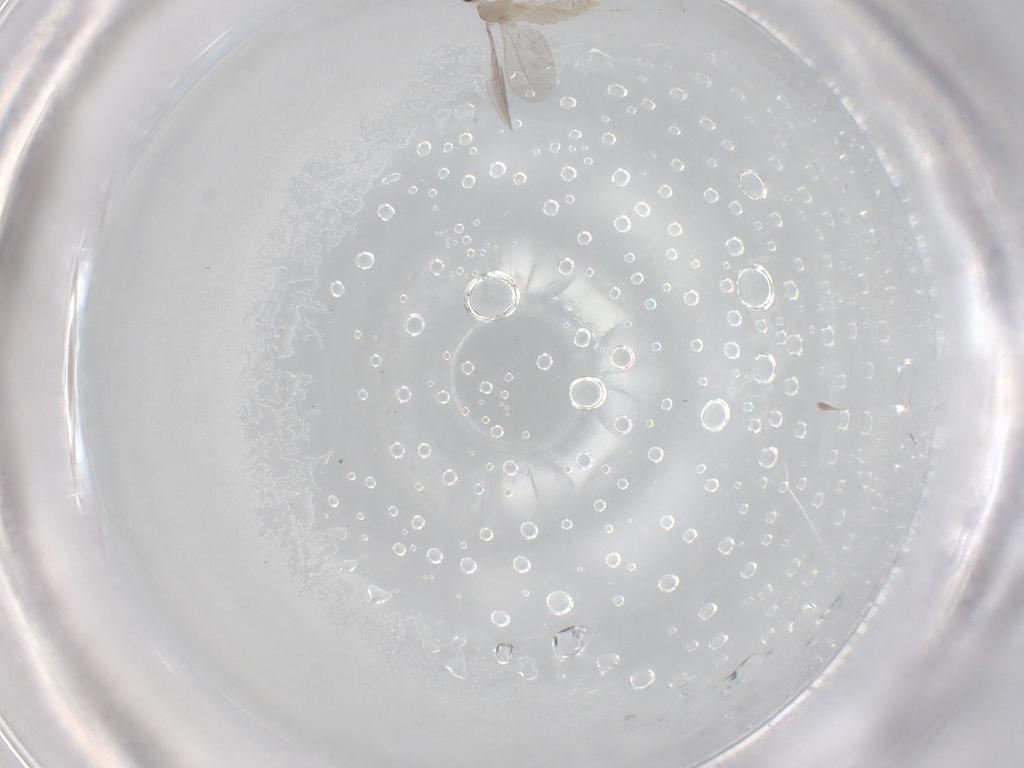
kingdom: Animalia
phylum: Arthropoda
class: Insecta
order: Diptera
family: Cecidomyiidae
